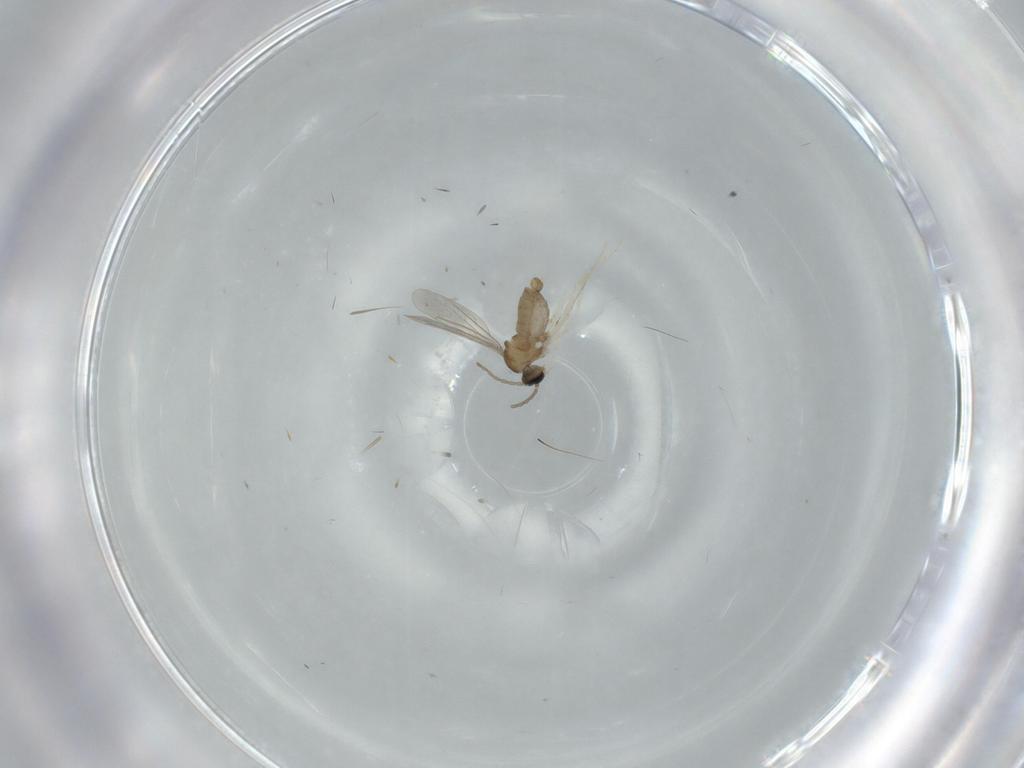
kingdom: Animalia
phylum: Arthropoda
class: Insecta
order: Diptera
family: Cecidomyiidae
